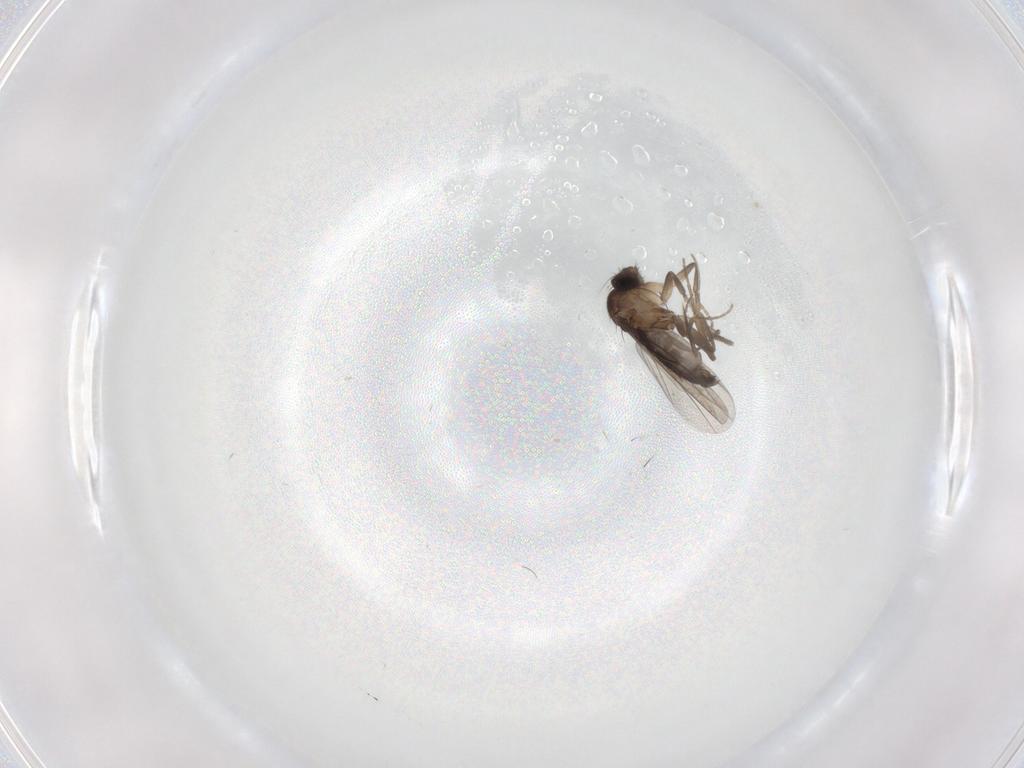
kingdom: Animalia
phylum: Arthropoda
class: Insecta
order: Diptera
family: Ceratopogonidae
